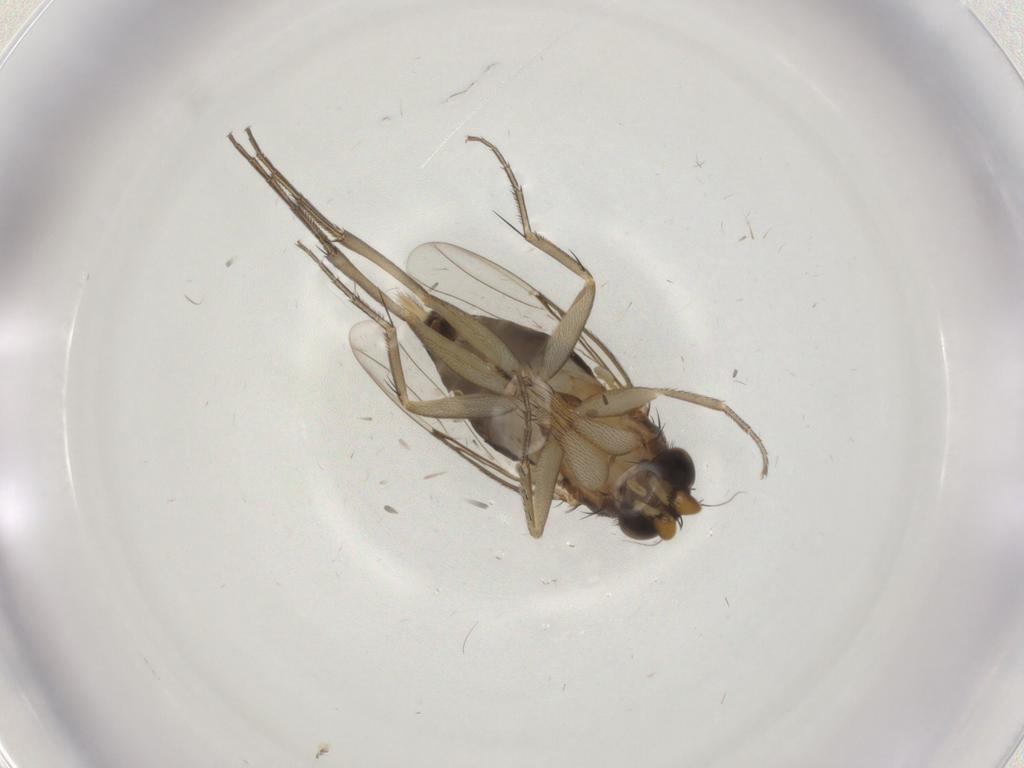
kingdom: Animalia
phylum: Arthropoda
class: Insecta
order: Diptera
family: Phoridae
